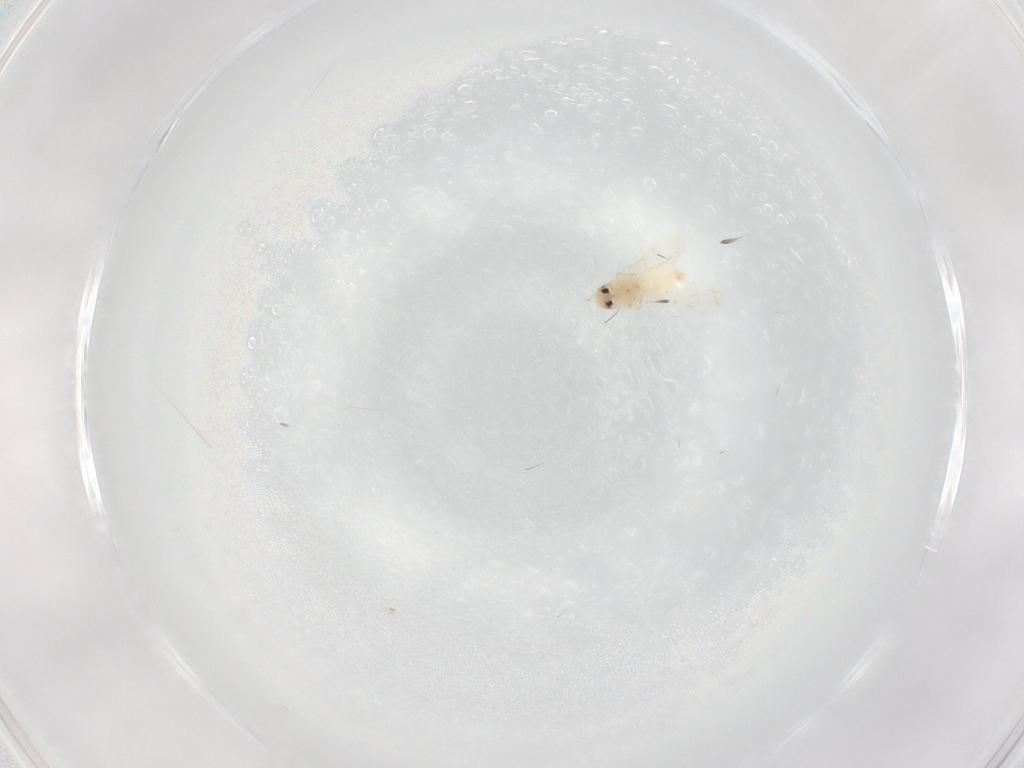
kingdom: Animalia
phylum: Arthropoda
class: Insecta
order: Hemiptera
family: Aleyrodidae
